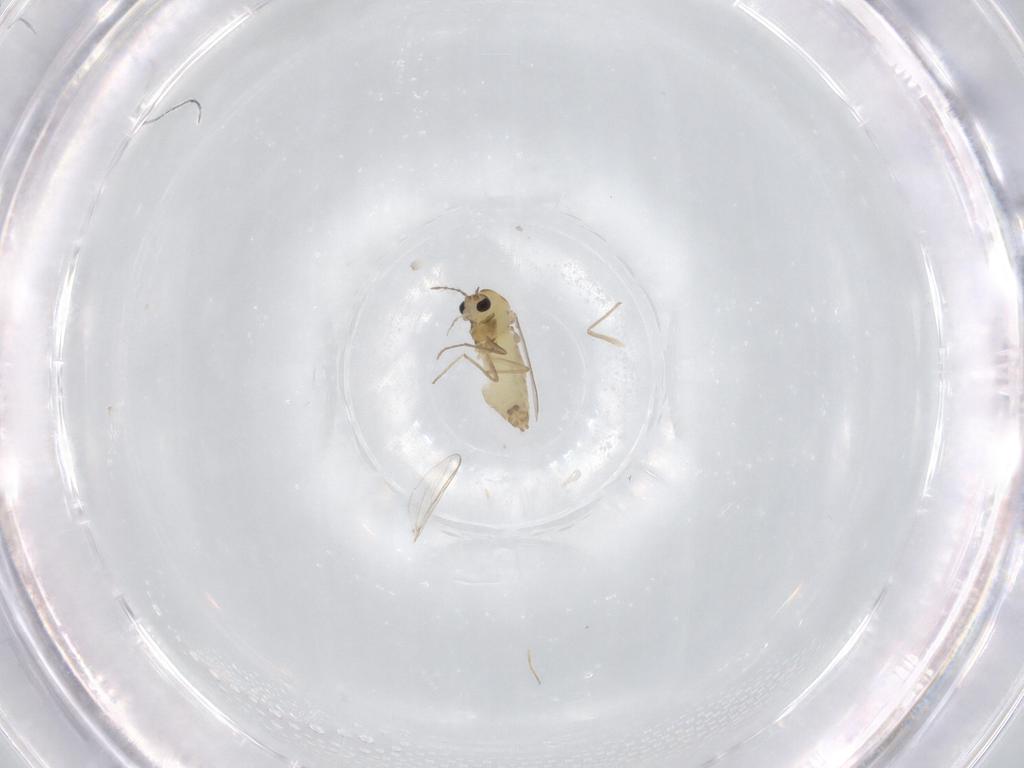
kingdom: Animalia
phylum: Arthropoda
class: Insecta
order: Diptera
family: Chironomidae
